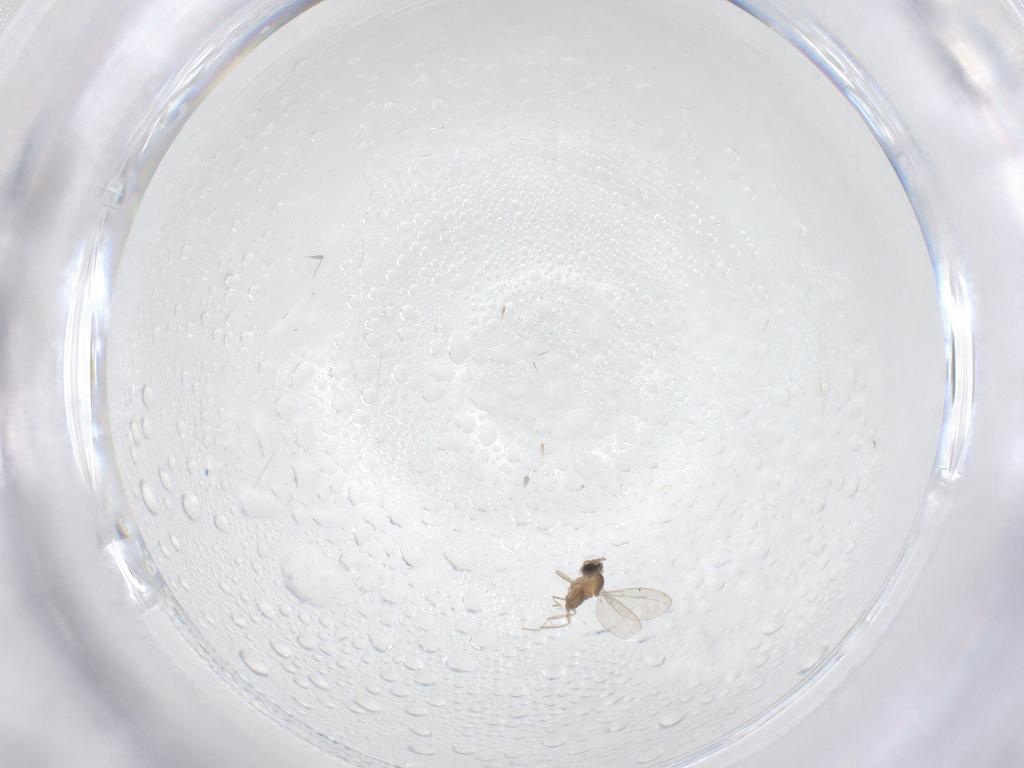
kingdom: Animalia
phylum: Arthropoda
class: Insecta
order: Diptera
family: Cecidomyiidae
